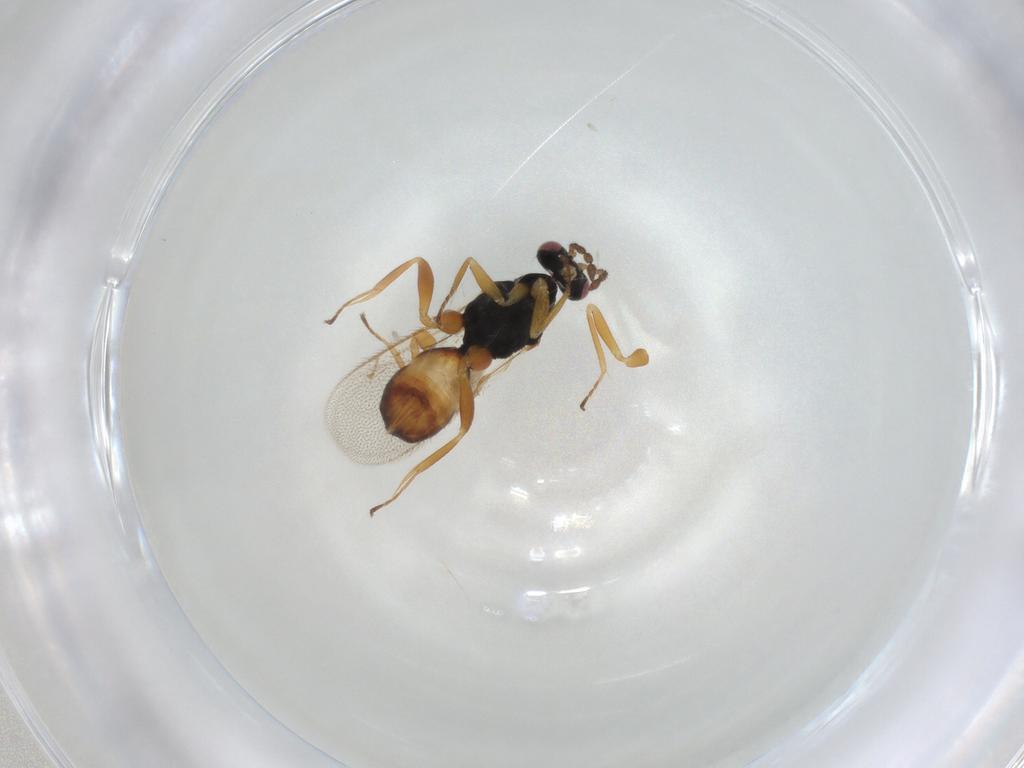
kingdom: Animalia
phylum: Arthropoda
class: Insecta
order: Hymenoptera
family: Eulophidae
